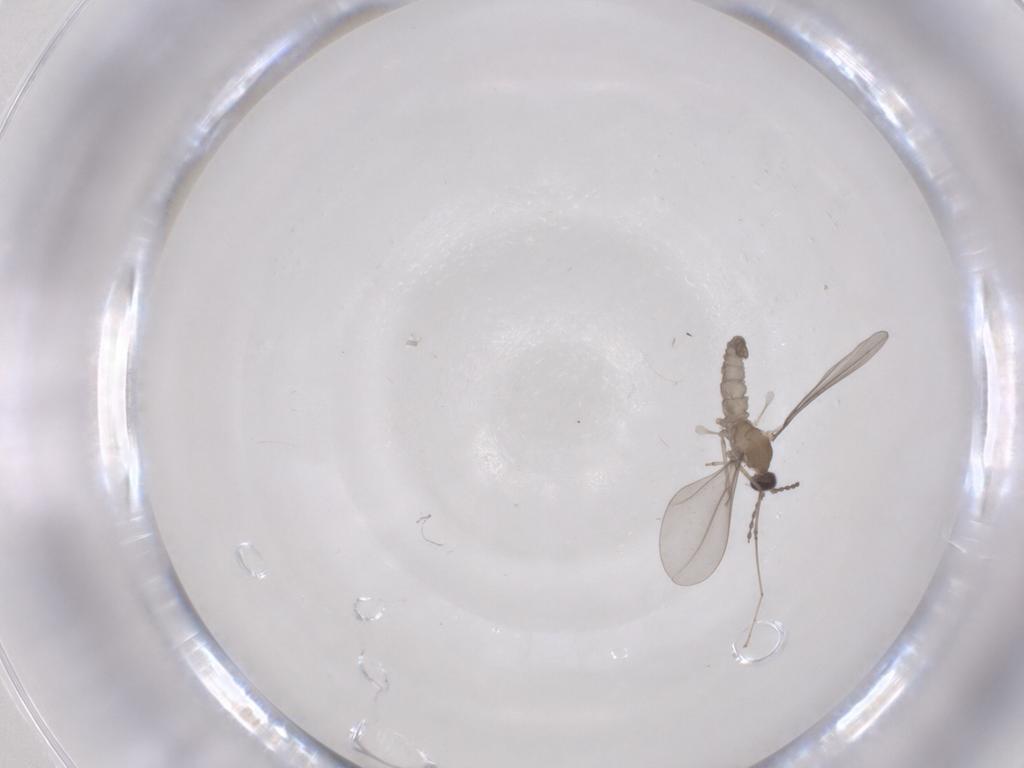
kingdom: Animalia
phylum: Arthropoda
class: Insecta
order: Diptera
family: Cecidomyiidae
